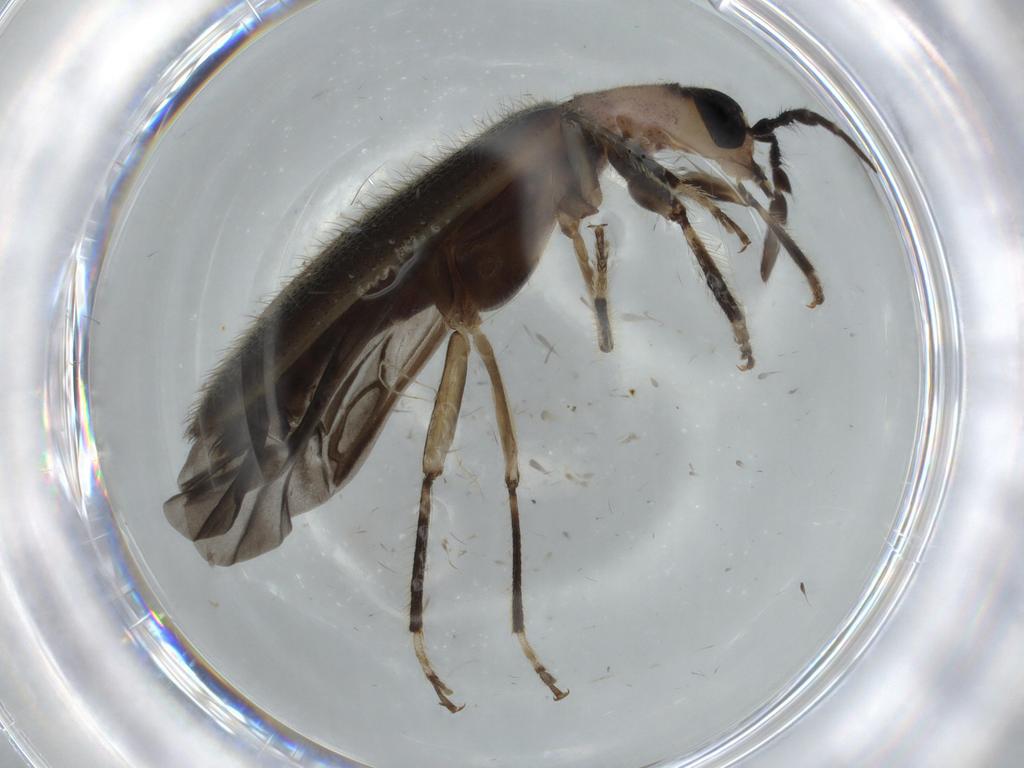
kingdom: Animalia
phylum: Arthropoda
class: Insecta
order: Coleoptera
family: Cleridae
